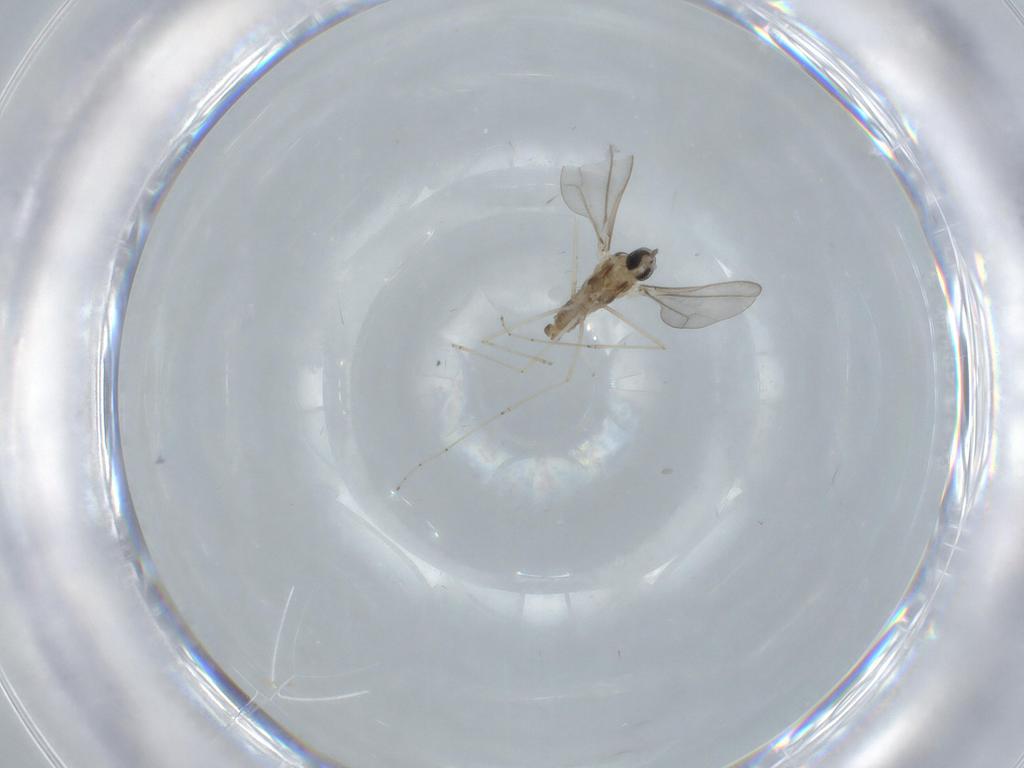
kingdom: Animalia
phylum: Arthropoda
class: Insecta
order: Diptera
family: Cecidomyiidae
